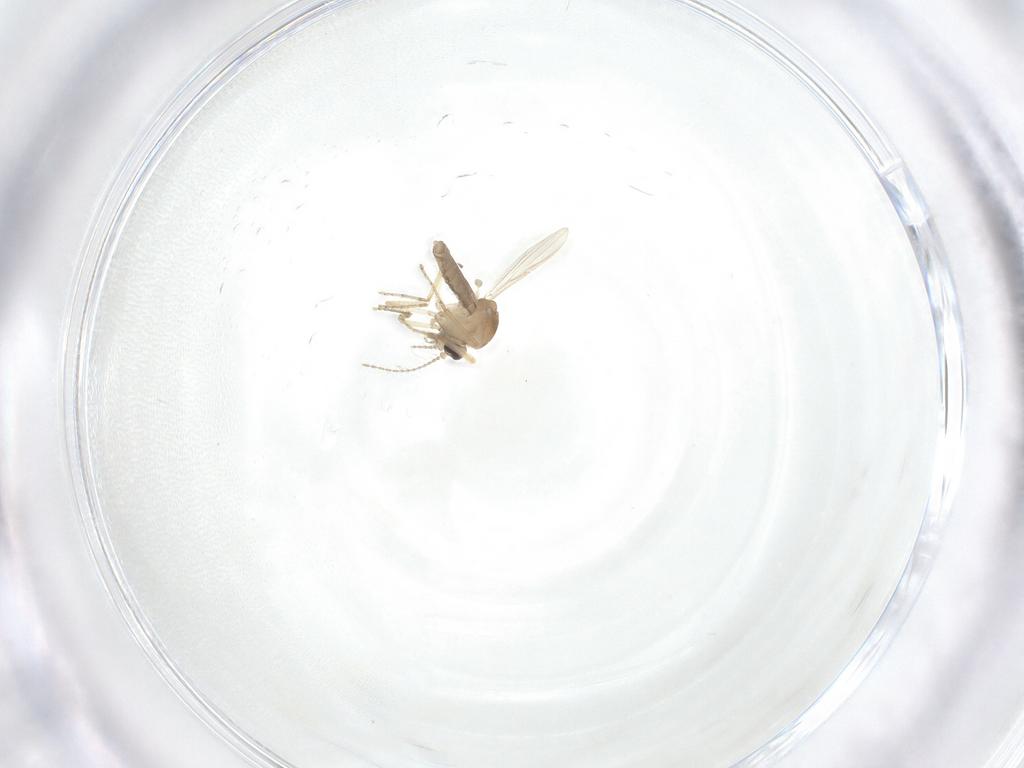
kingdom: Animalia
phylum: Arthropoda
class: Insecta
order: Diptera
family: Ceratopogonidae
